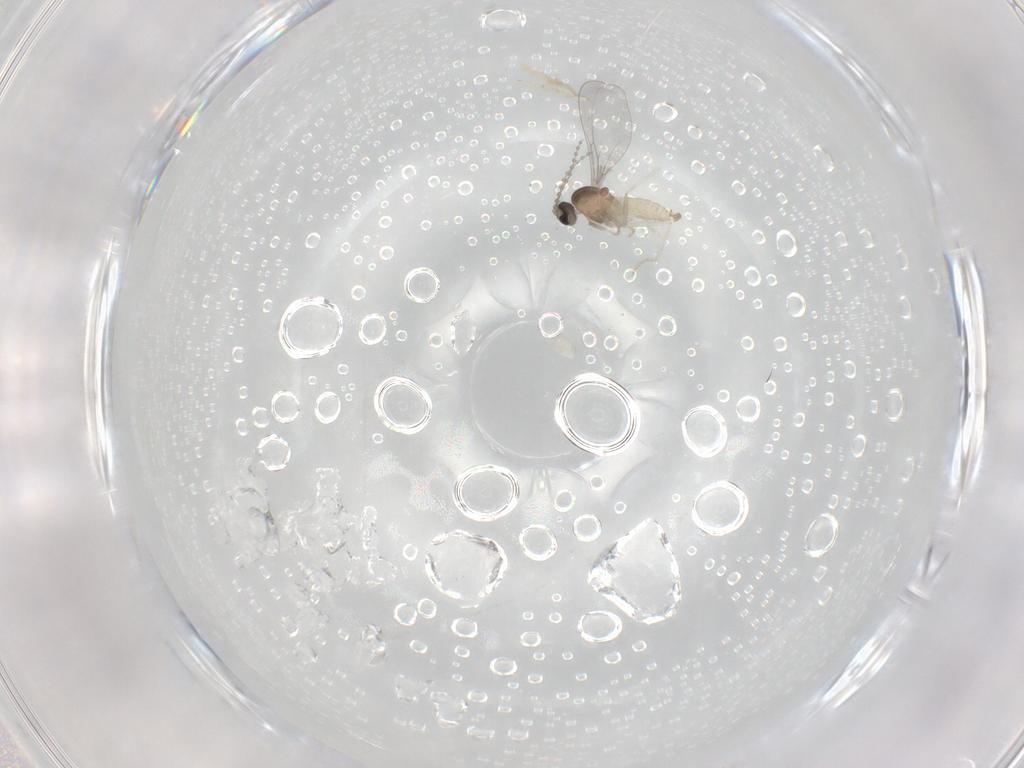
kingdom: Animalia
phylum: Arthropoda
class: Insecta
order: Diptera
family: Cecidomyiidae
